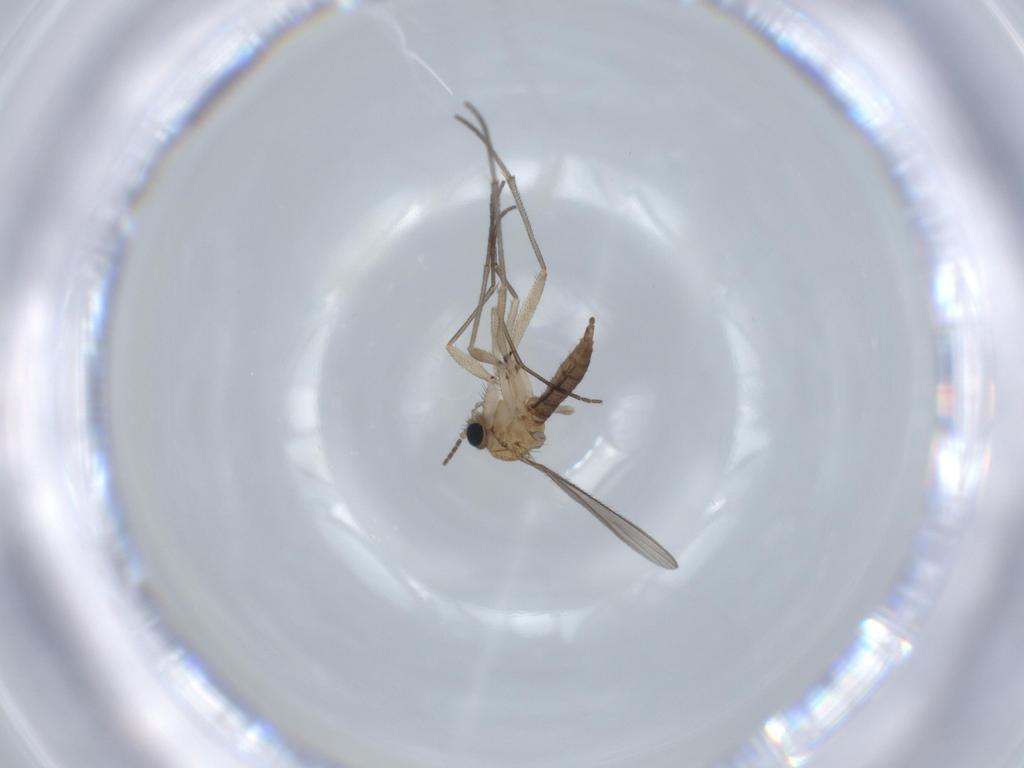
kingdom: Animalia
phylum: Arthropoda
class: Insecta
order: Diptera
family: Sciaridae
